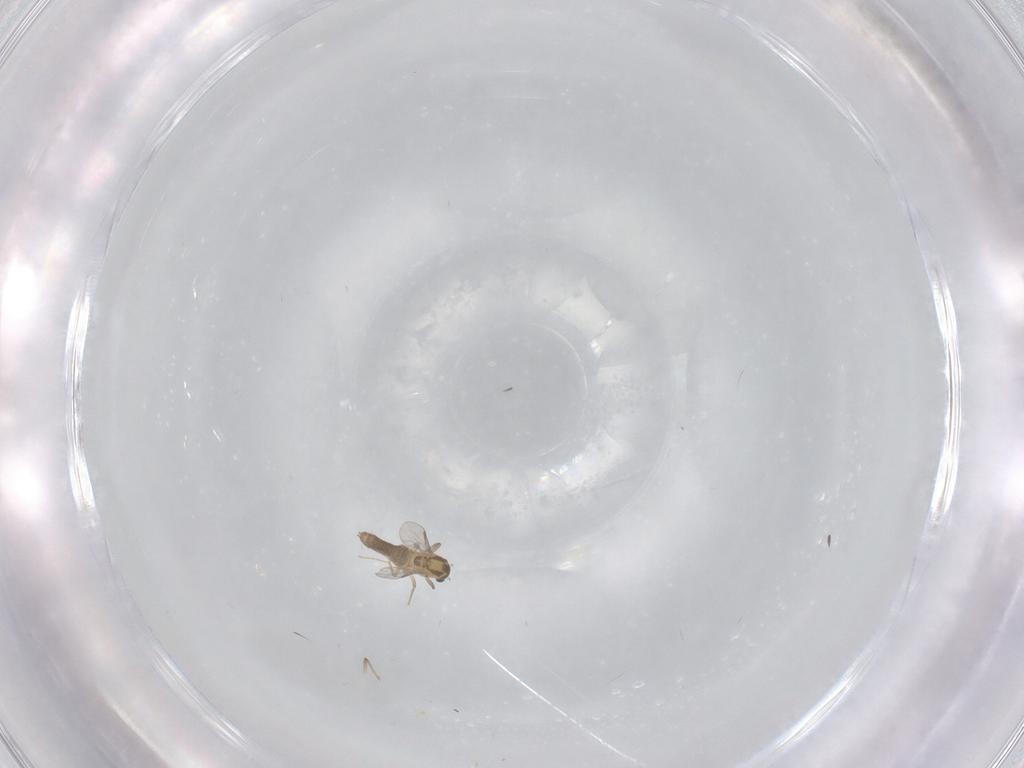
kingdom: Animalia
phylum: Arthropoda
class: Insecta
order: Diptera
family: Chironomidae
